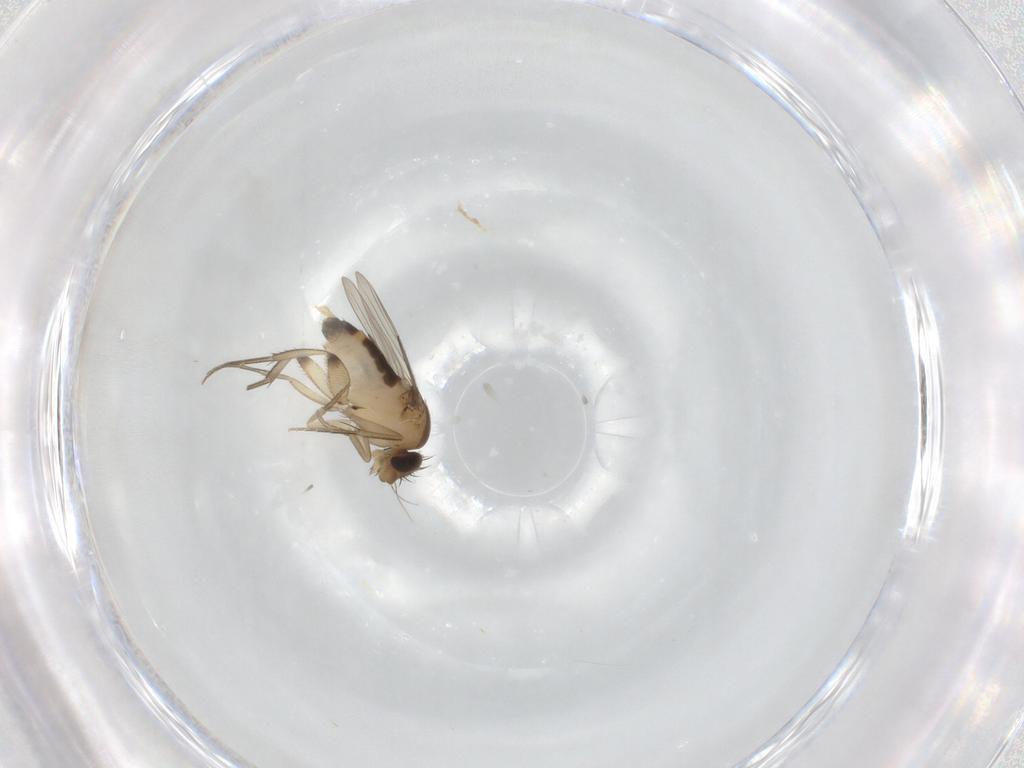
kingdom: Animalia
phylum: Arthropoda
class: Insecta
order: Diptera
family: Phoridae
